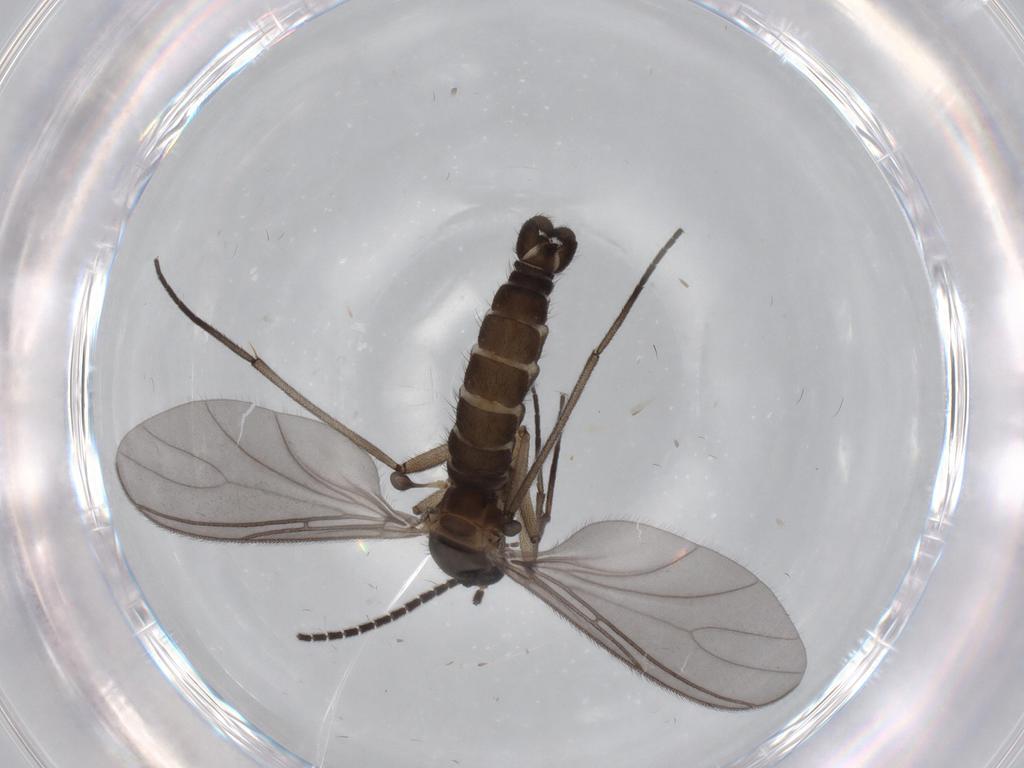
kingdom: Animalia
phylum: Arthropoda
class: Insecta
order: Diptera
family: Sciaridae
